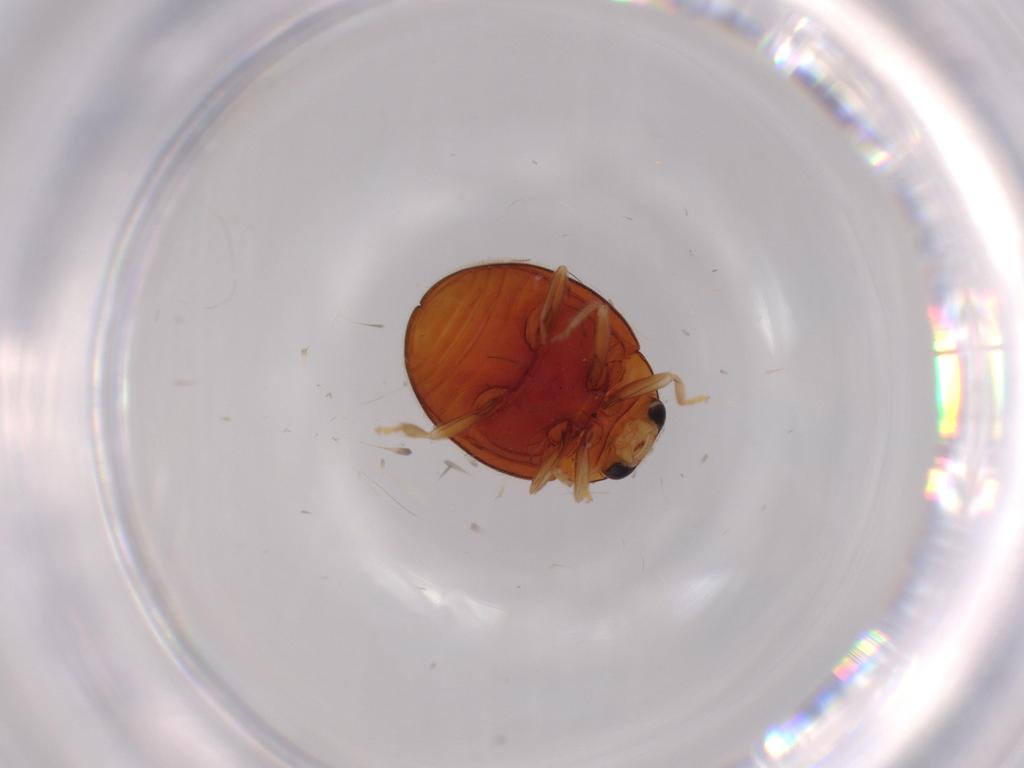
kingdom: Animalia
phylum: Arthropoda
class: Insecta
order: Coleoptera
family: Coccinellidae
